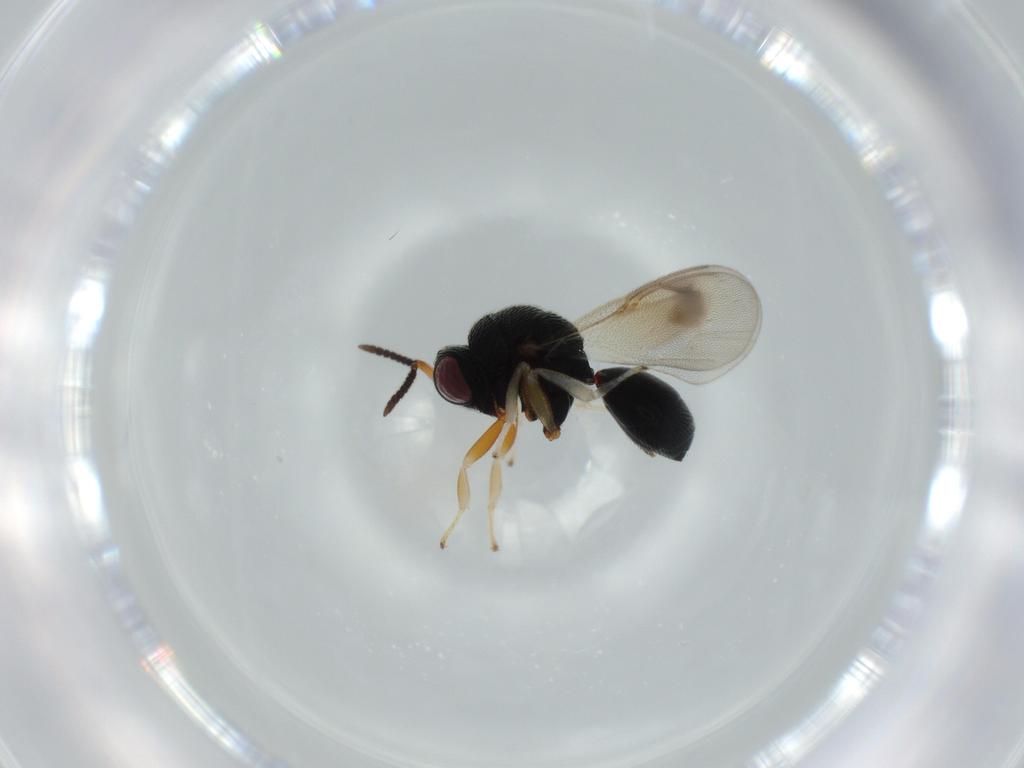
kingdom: Animalia
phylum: Arthropoda
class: Insecta
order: Hymenoptera
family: Eurytomidae
